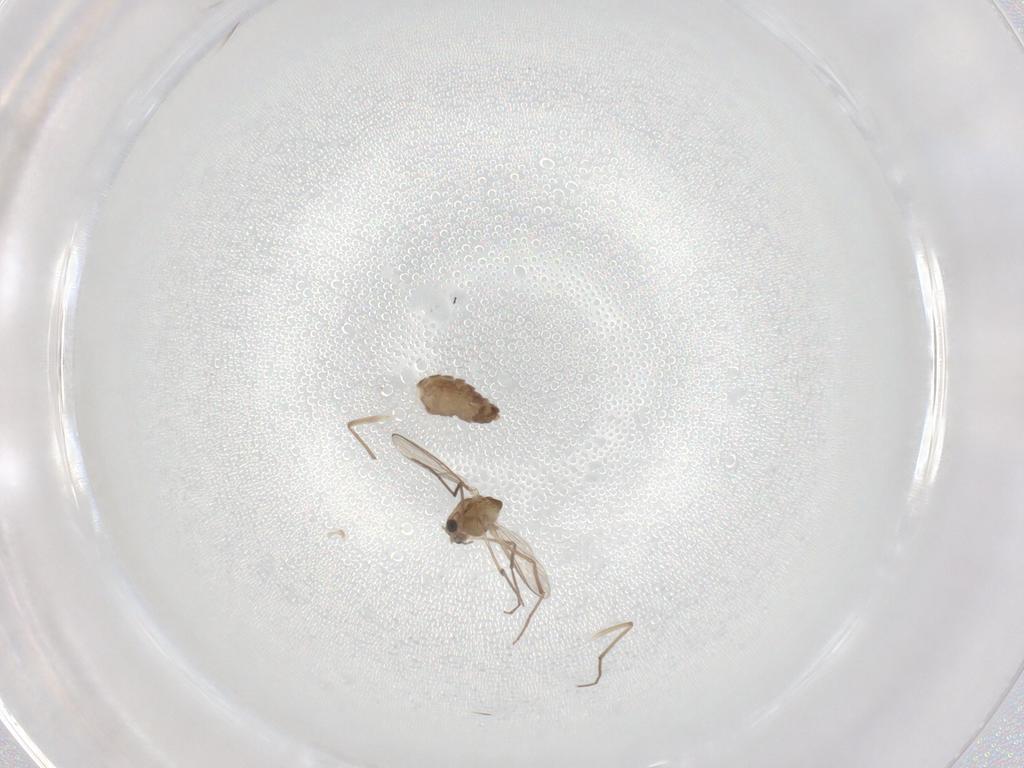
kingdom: Animalia
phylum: Arthropoda
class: Insecta
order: Diptera
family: Chironomidae
